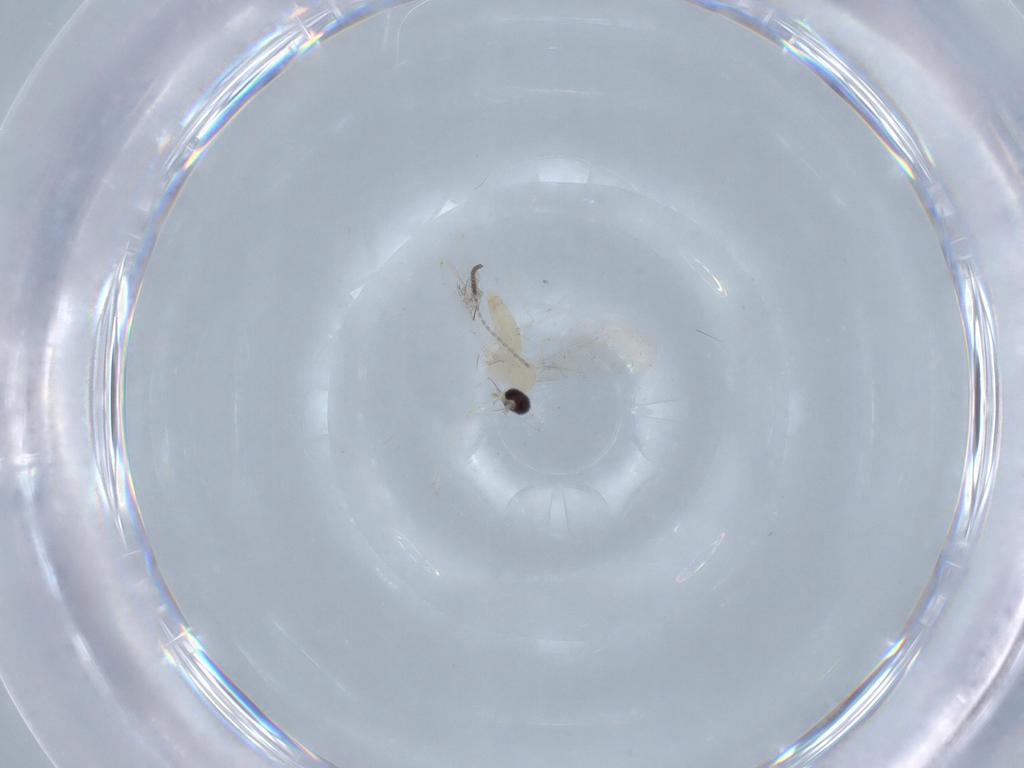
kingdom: Animalia
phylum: Arthropoda
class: Insecta
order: Diptera
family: Cecidomyiidae
